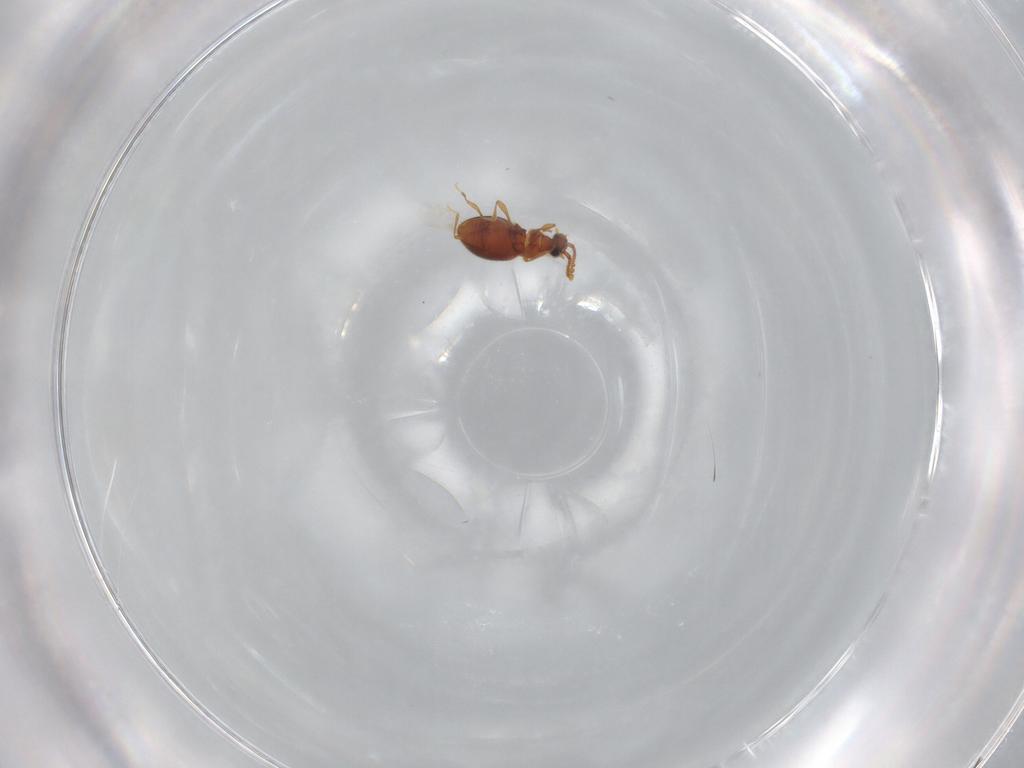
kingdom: Animalia
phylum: Arthropoda
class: Insecta
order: Coleoptera
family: Staphylinidae
